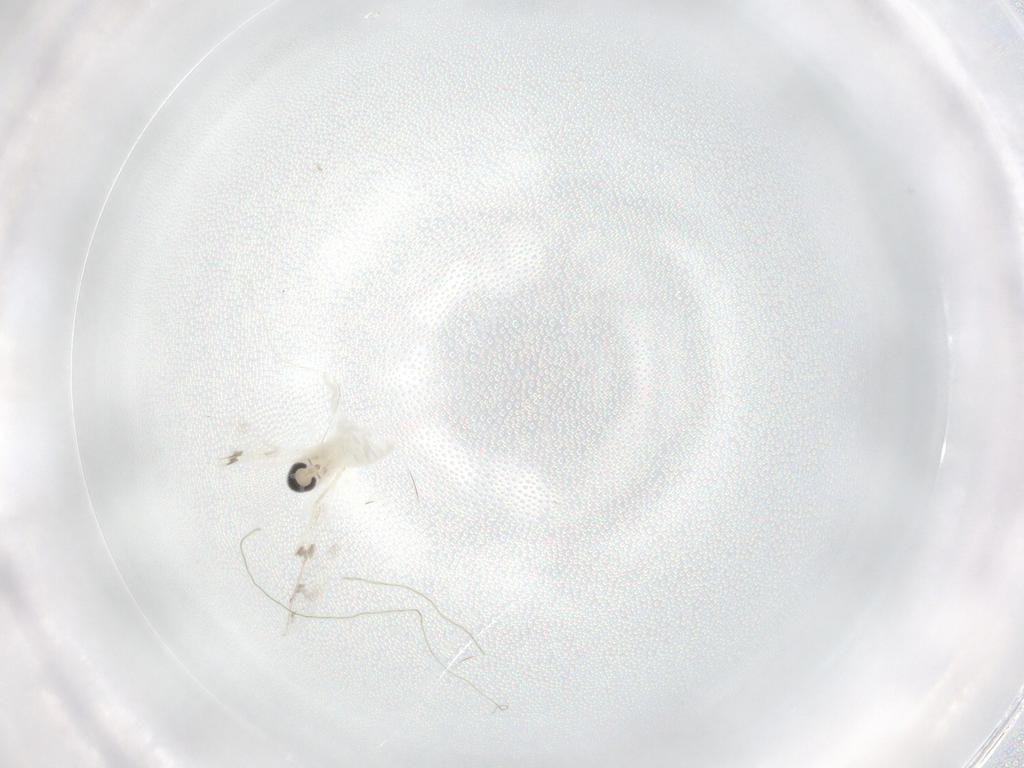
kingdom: Animalia
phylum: Arthropoda
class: Insecta
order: Diptera
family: Cecidomyiidae
